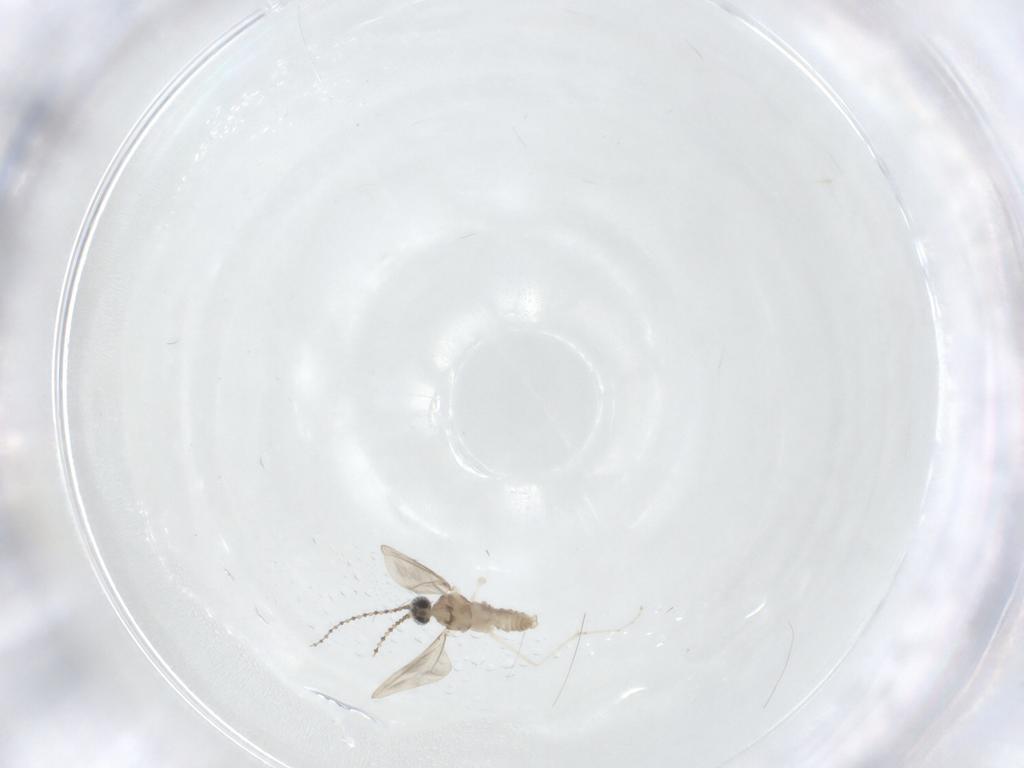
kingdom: Animalia
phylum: Arthropoda
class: Insecta
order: Diptera
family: Cecidomyiidae
